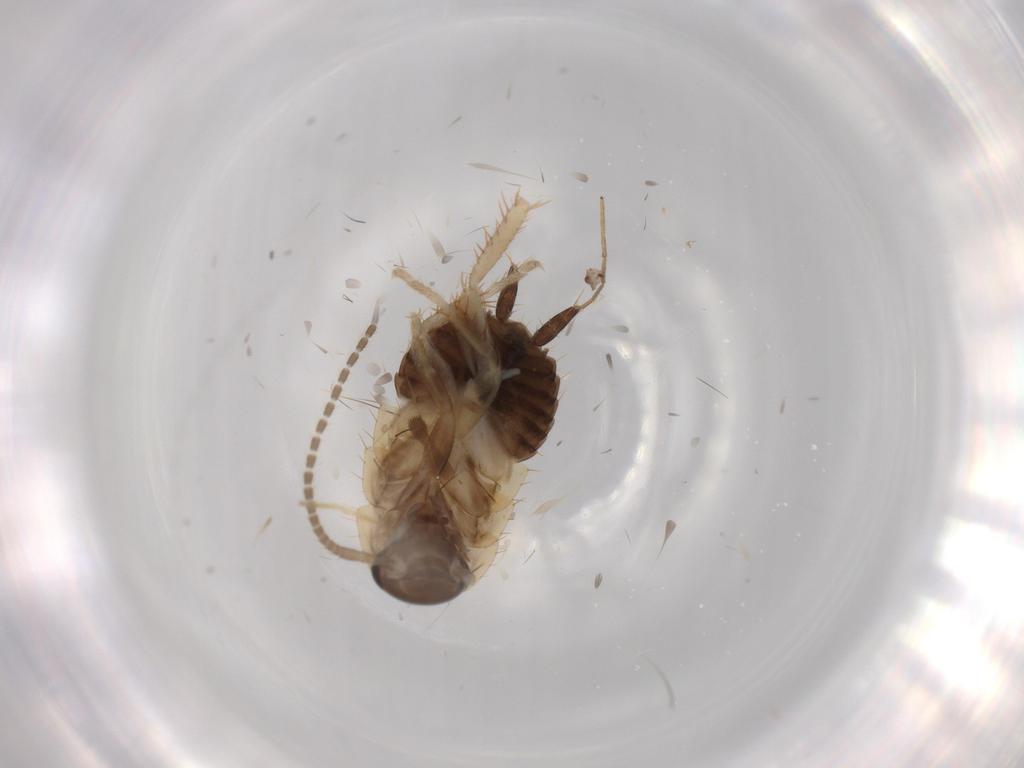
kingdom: Animalia
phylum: Arthropoda
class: Insecta
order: Blattodea
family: Ectobiidae
